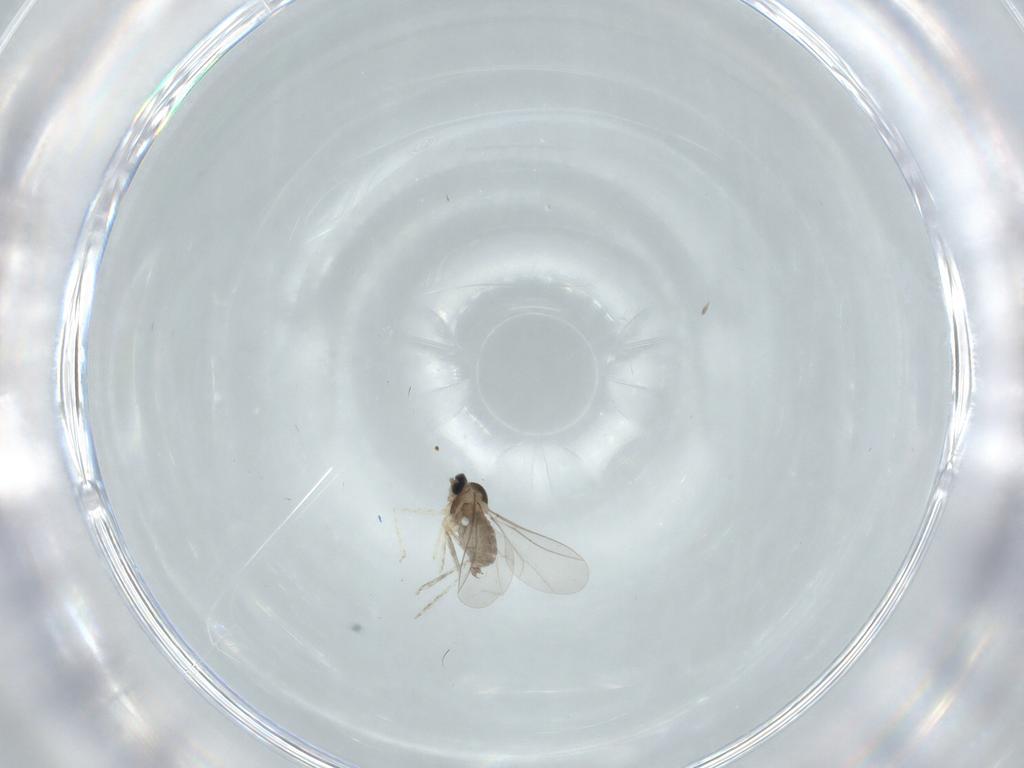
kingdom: Animalia
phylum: Arthropoda
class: Insecta
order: Diptera
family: Cecidomyiidae
